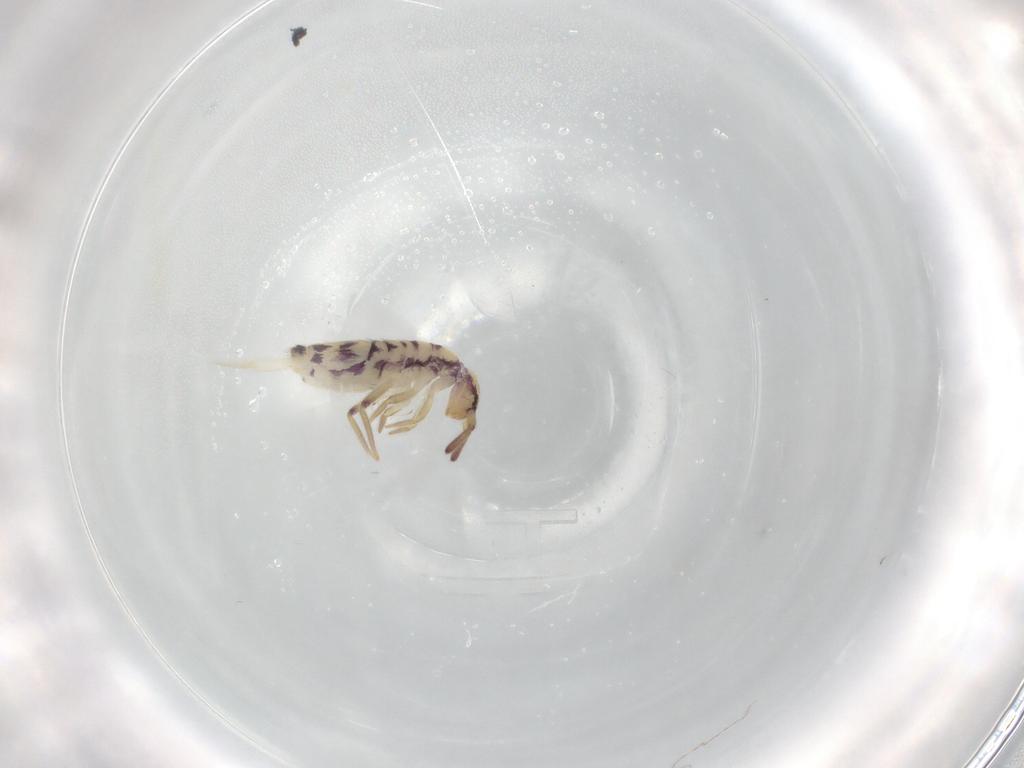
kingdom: Animalia
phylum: Arthropoda
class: Collembola
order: Entomobryomorpha
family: Entomobryidae
